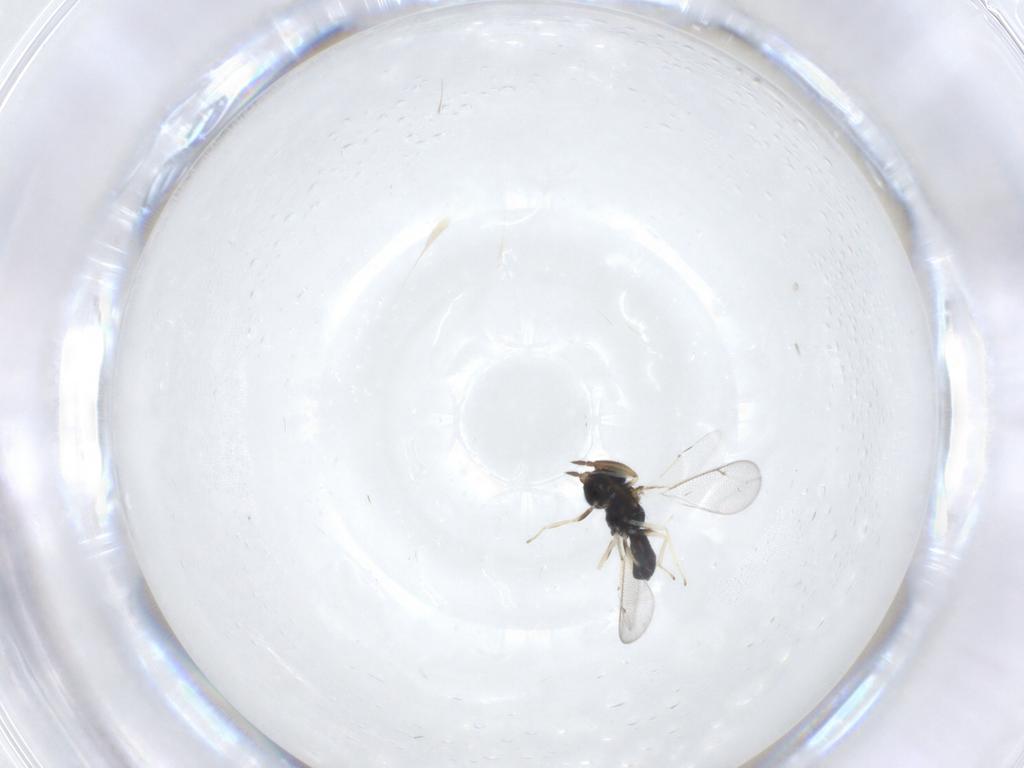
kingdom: Animalia
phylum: Arthropoda
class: Insecta
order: Hymenoptera
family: Eulophidae
